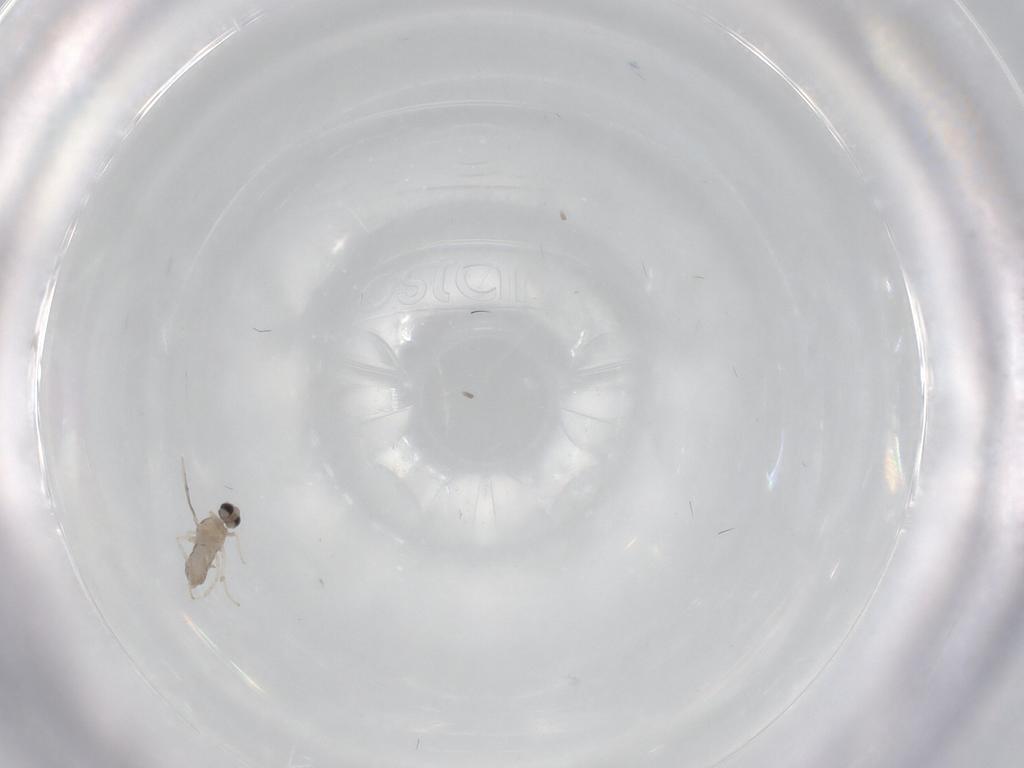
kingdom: Animalia
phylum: Arthropoda
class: Insecta
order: Diptera
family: Cecidomyiidae
